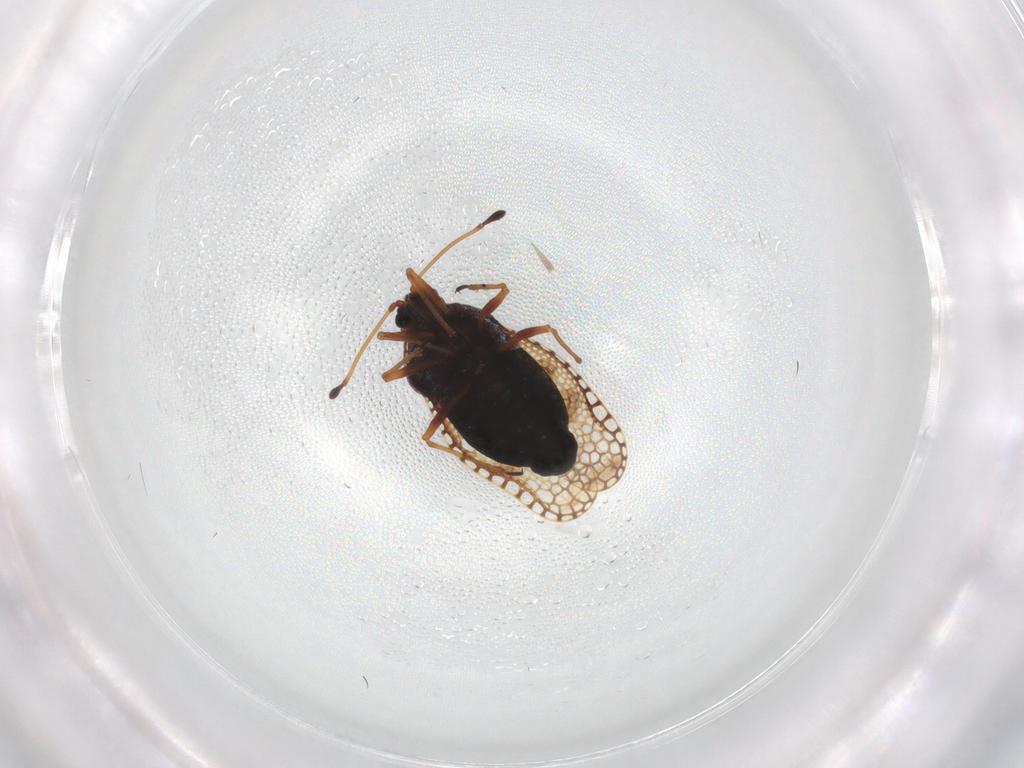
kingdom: Animalia
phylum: Arthropoda
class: Insecta
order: Hemiptera
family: Tingidae
